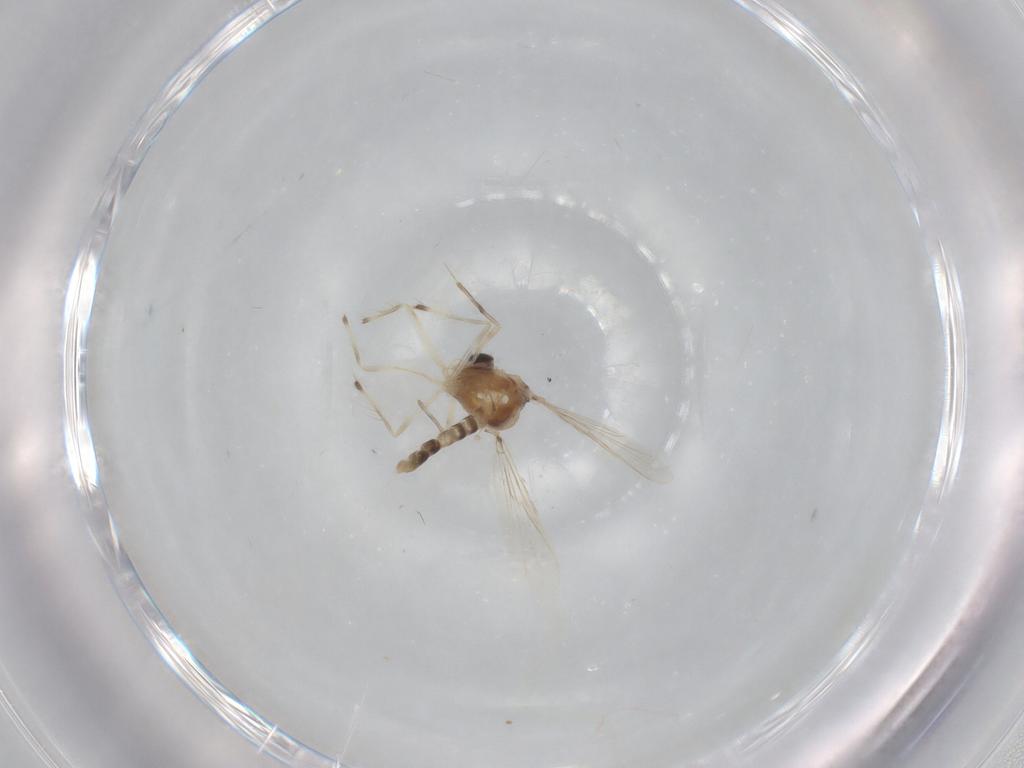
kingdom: Animalia
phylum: Arthropoda
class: Insecta
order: Diptera
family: Chironomidae
